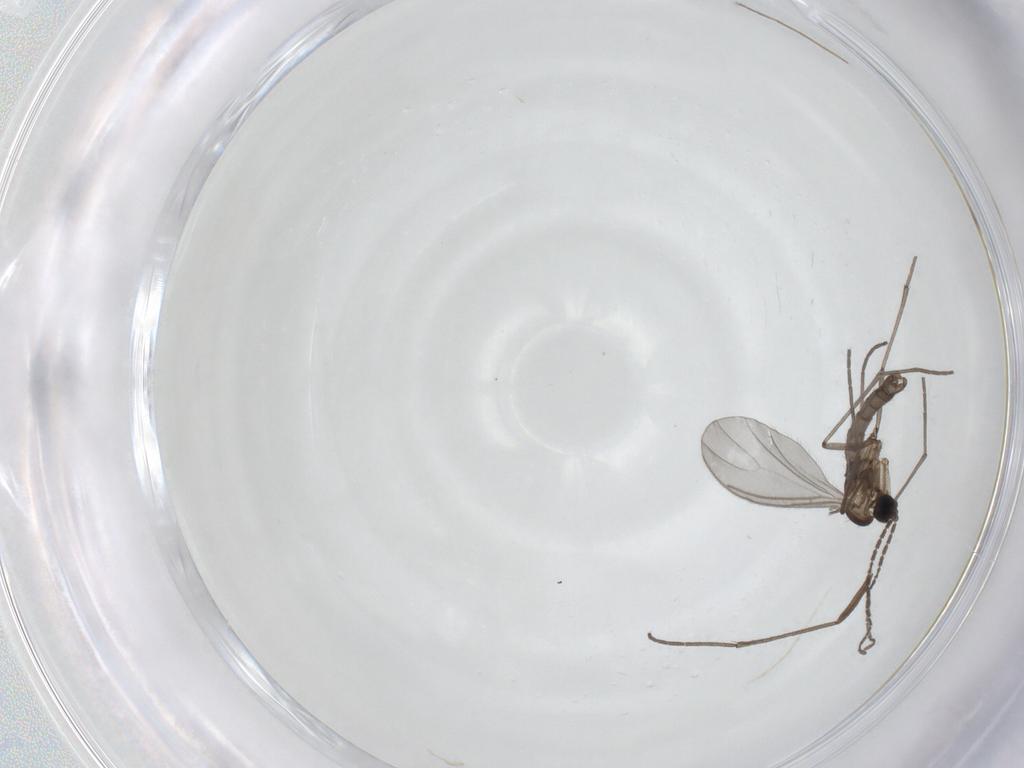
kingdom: Animalia
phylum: Arthropoda
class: Insecta
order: Diptera
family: Sciaridae
